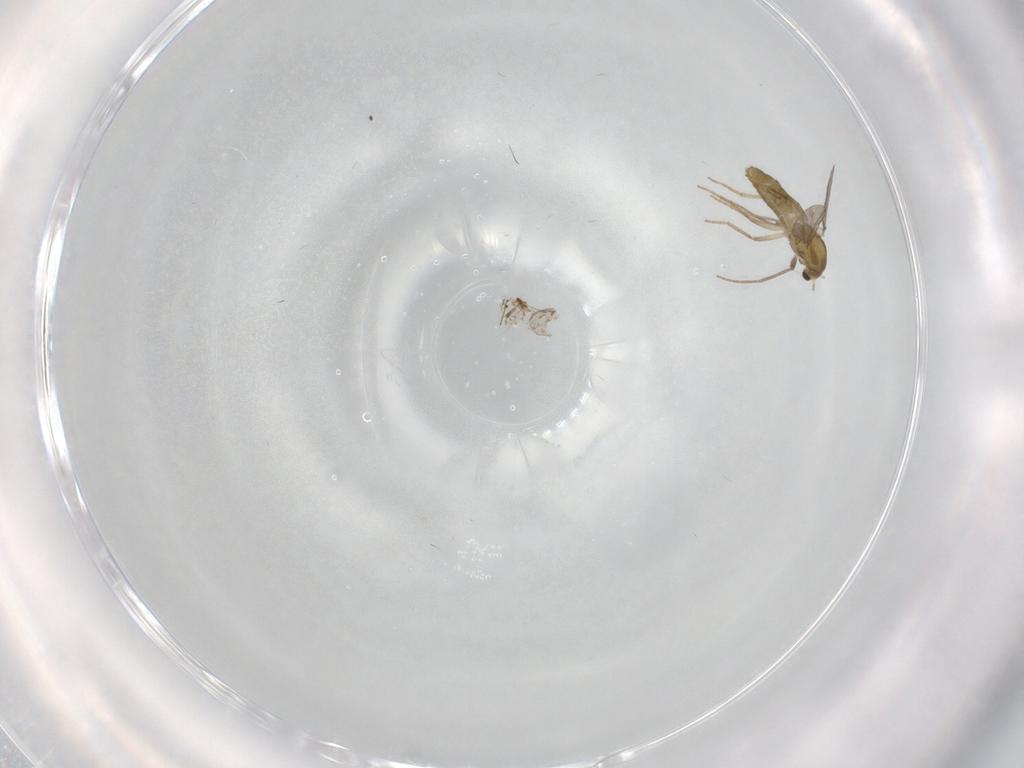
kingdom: Animalia
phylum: Arthropoda
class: Insecta
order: Diptera
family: Chironomidae
